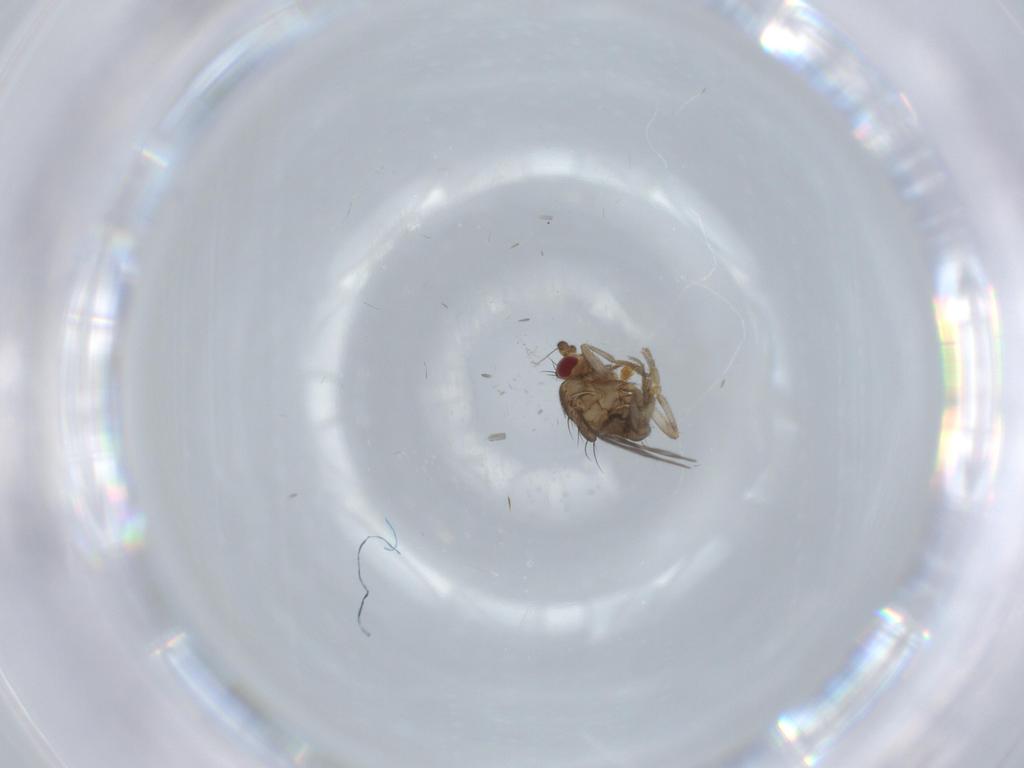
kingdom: Animalia
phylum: Arthropoda
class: Insecta
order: Diptera
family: Sphaeroceridae
